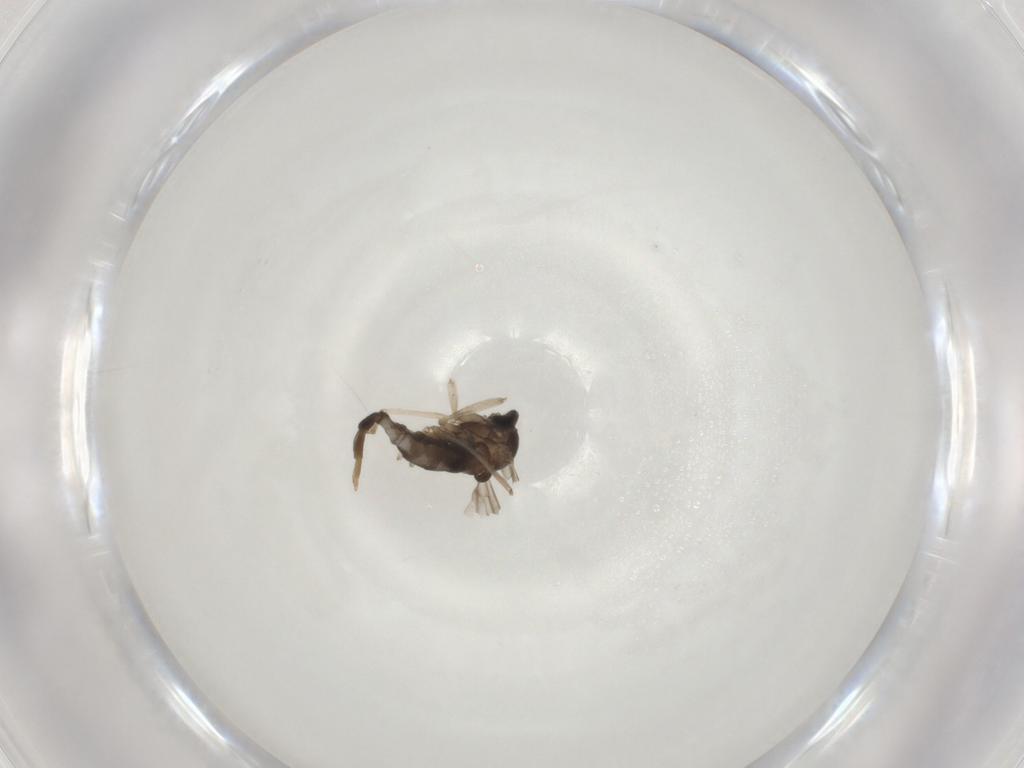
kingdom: Animalia
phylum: Arthropoda
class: Insecta
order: Diptera
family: Cecidomyiidae
